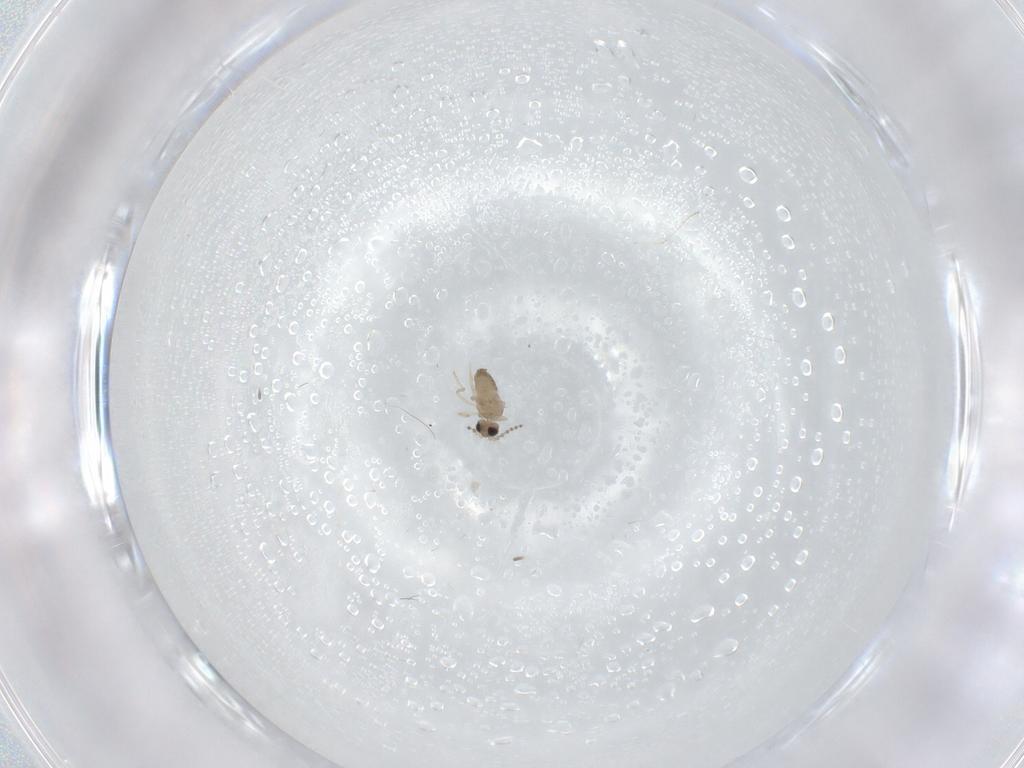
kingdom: Animalia
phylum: Arthropoda
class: Insecta
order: Diptera
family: Cecidomyiidae
